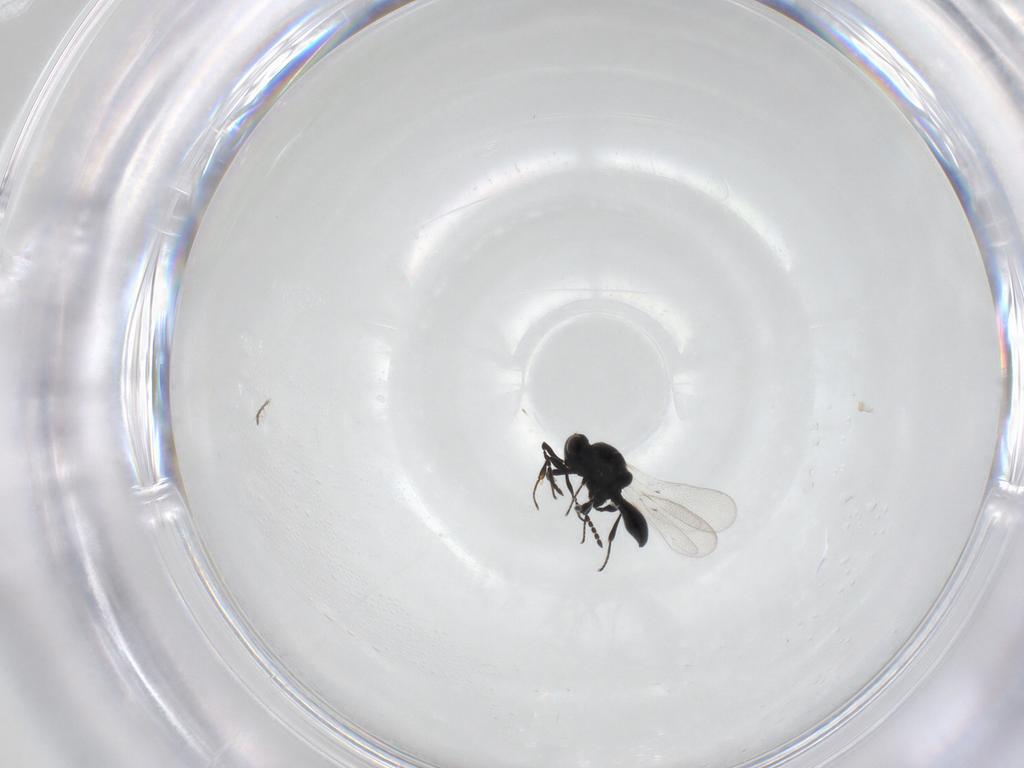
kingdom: Animalia
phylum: Arthropoda
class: Insecta
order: Hymenoptera
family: Platygastridae
